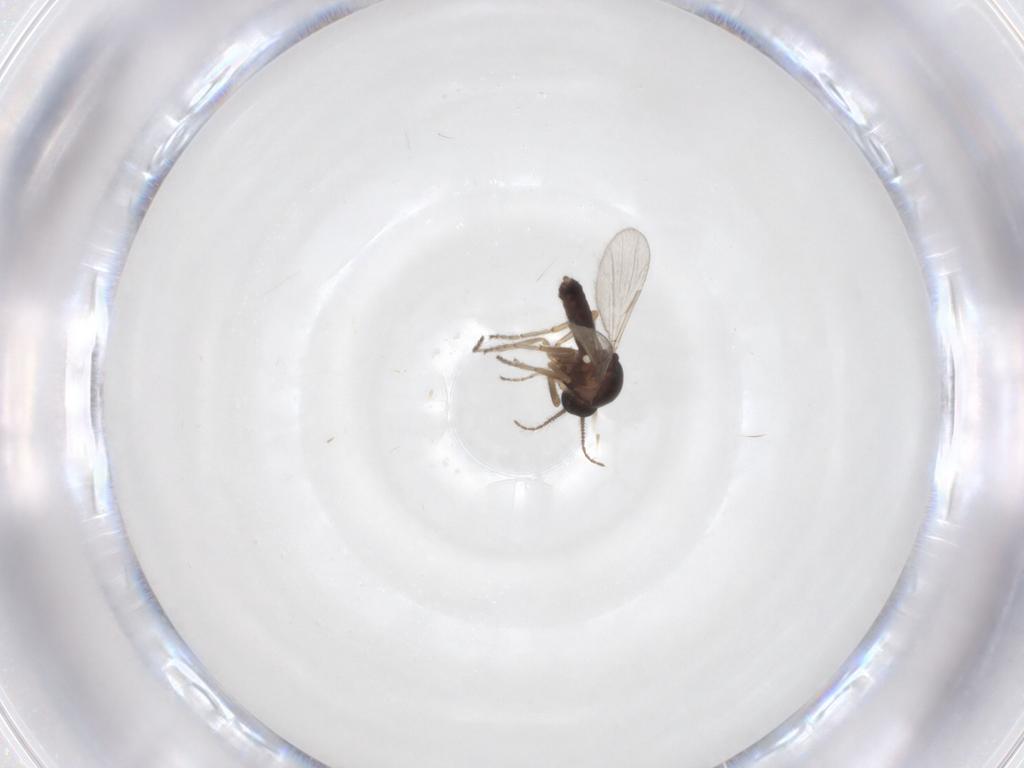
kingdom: Animalia
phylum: Arthropoda
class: Insecta
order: Diptera
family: Ceratopogonidae
